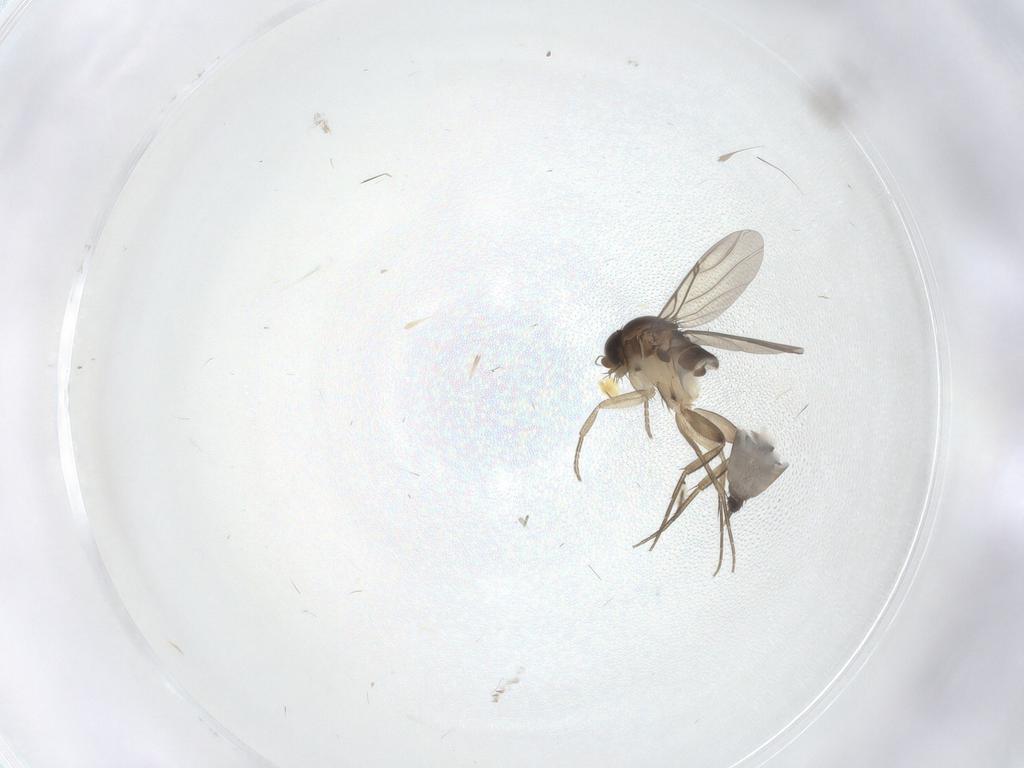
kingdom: Animalia
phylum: Arthropoda
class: Insecta
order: Diptera
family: Phoridae
